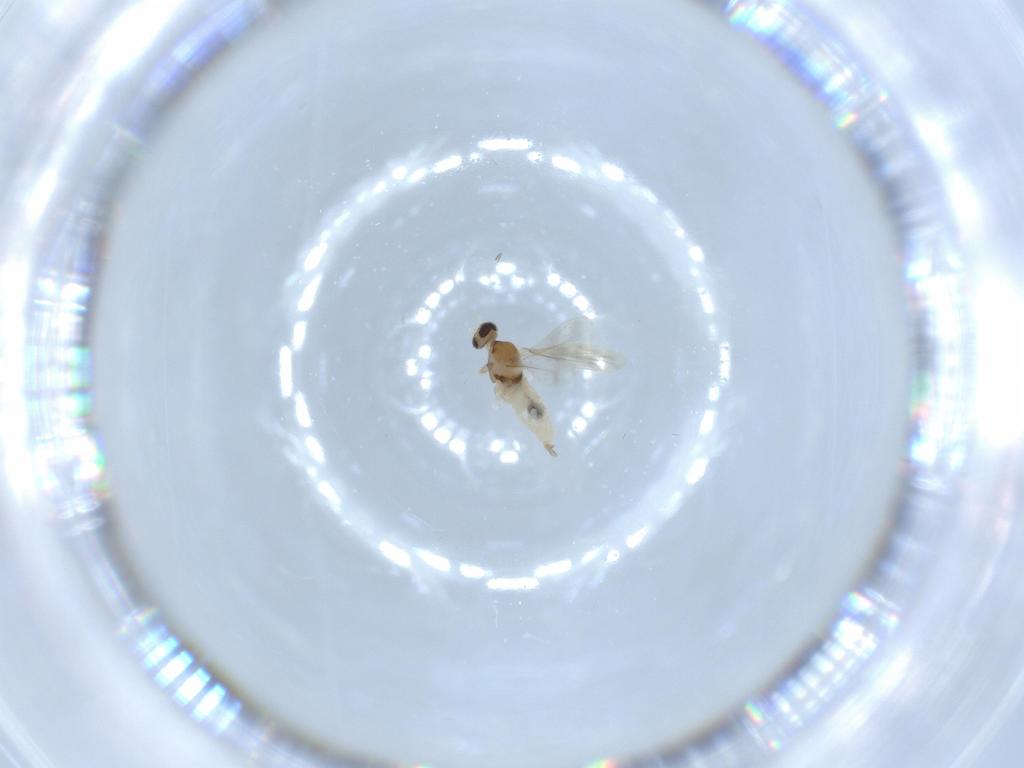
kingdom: Animalia
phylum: Arthropoda
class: Insecta
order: Diptera
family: Cecidomyiidae
